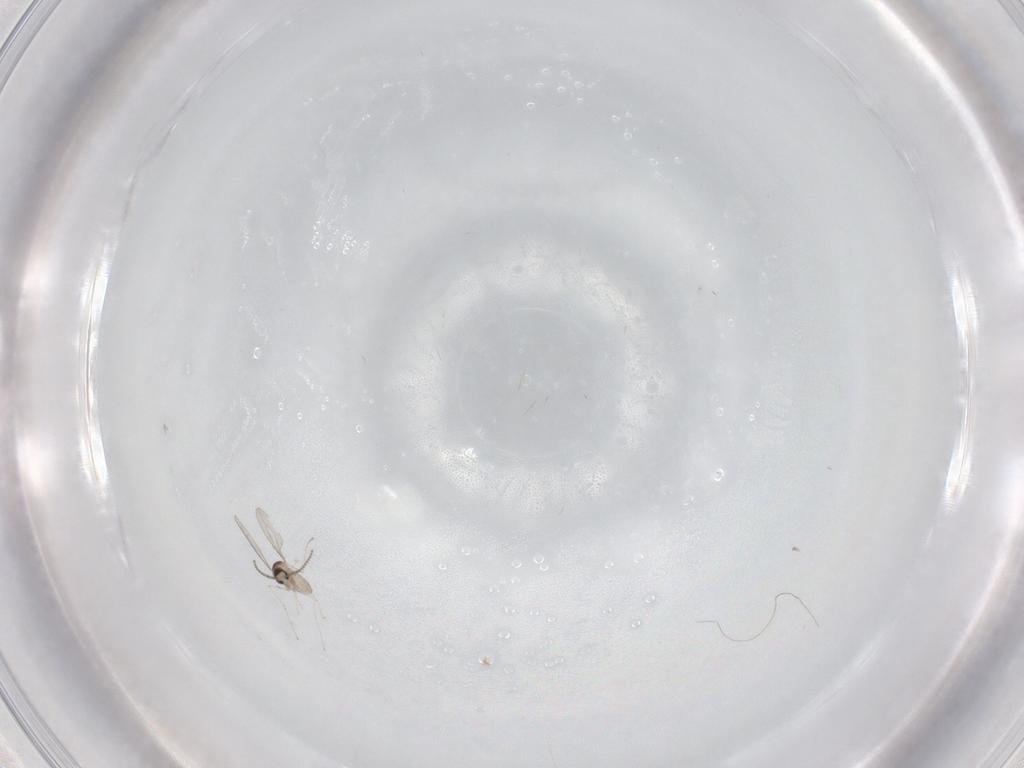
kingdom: Animalia
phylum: Arthropoda
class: Insecta
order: Diptera
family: Cecidomyiidae
